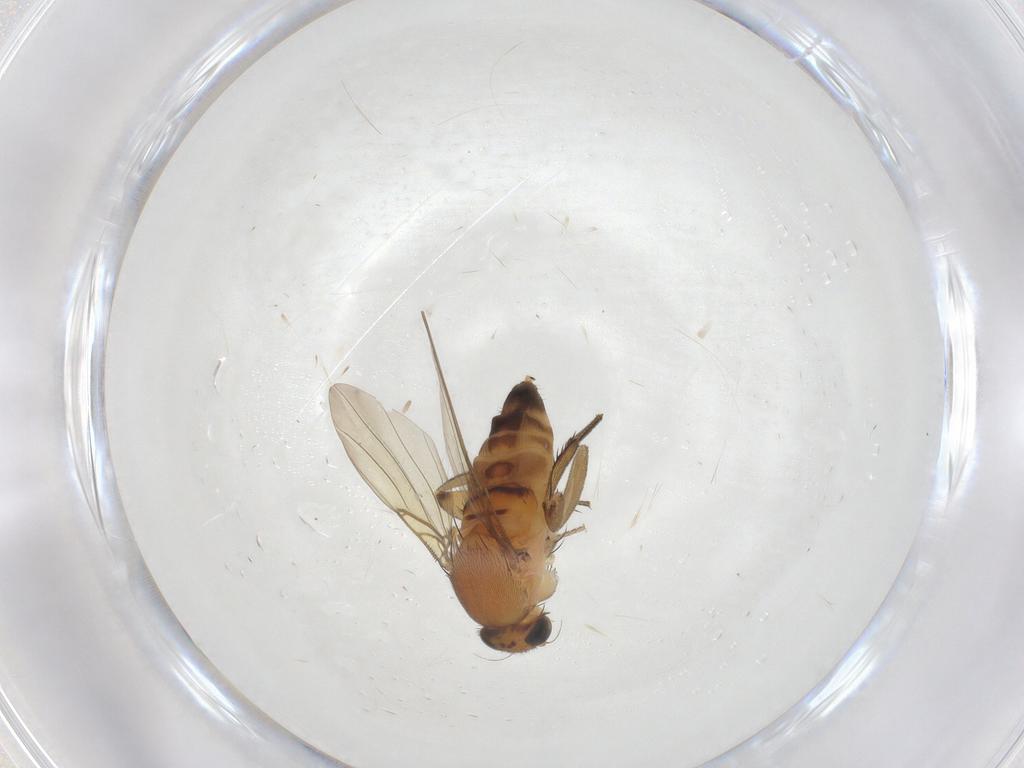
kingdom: Animalia
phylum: Arthropoda
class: Insecta
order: Diptera
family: Phoridae
